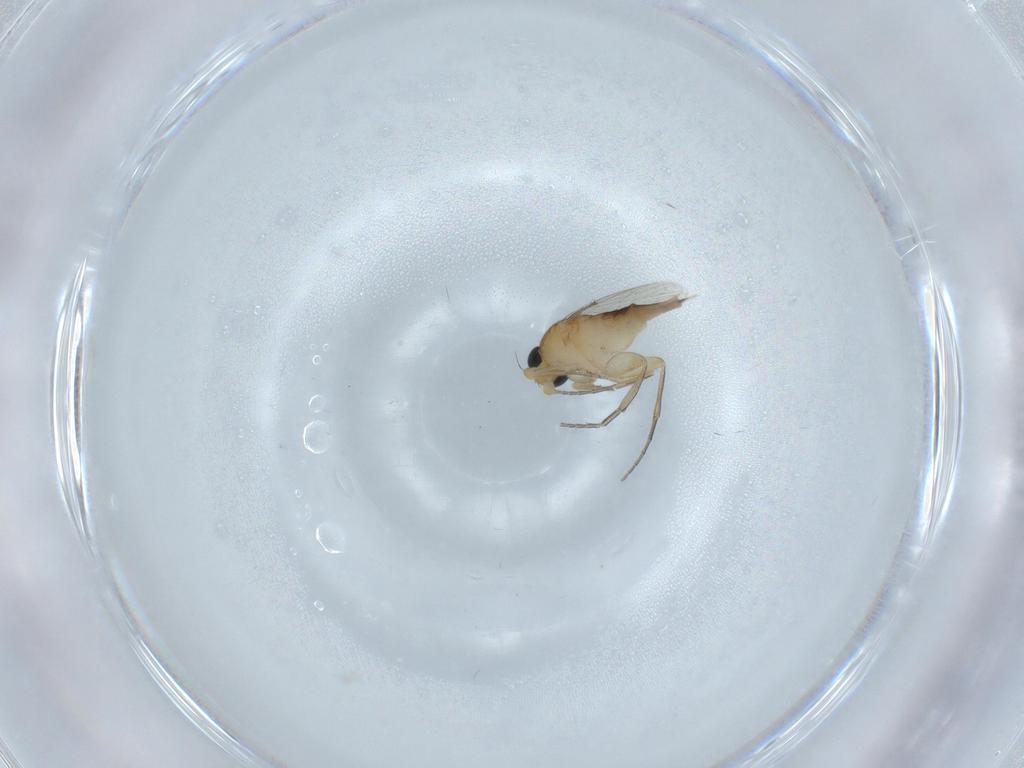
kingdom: Animalia
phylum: Arthropoda
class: Insecta
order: Diptera
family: Phoridae
